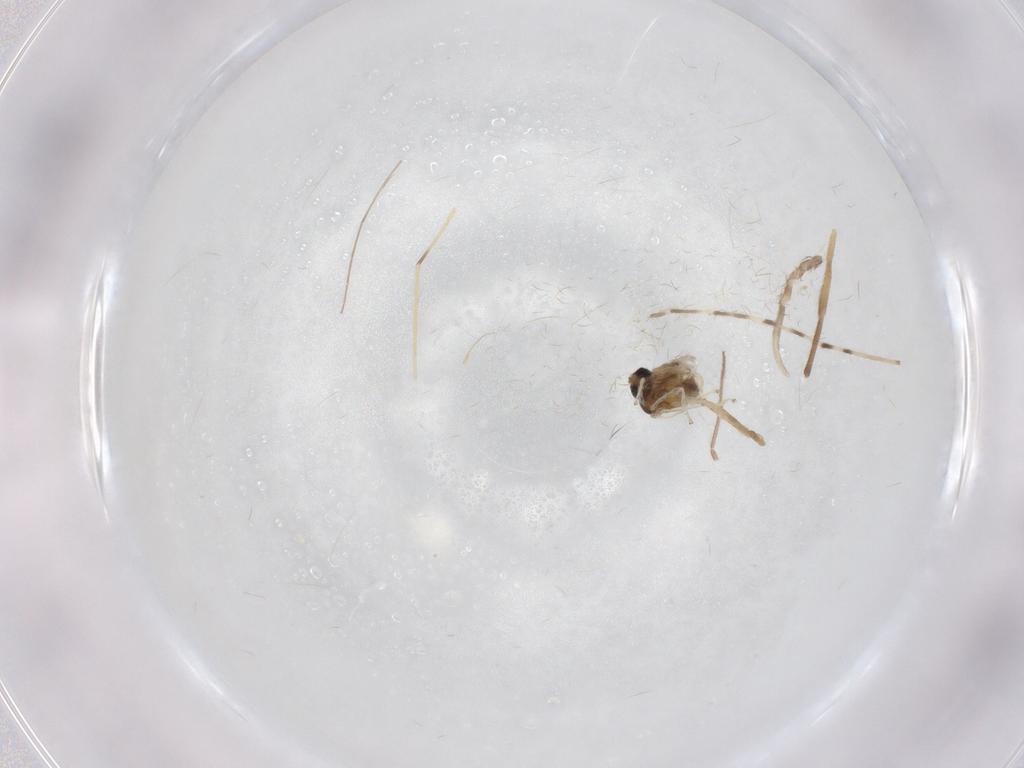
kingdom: Animalia
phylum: Arthropoda
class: Insecta
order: Diptera
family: Chironomidae
